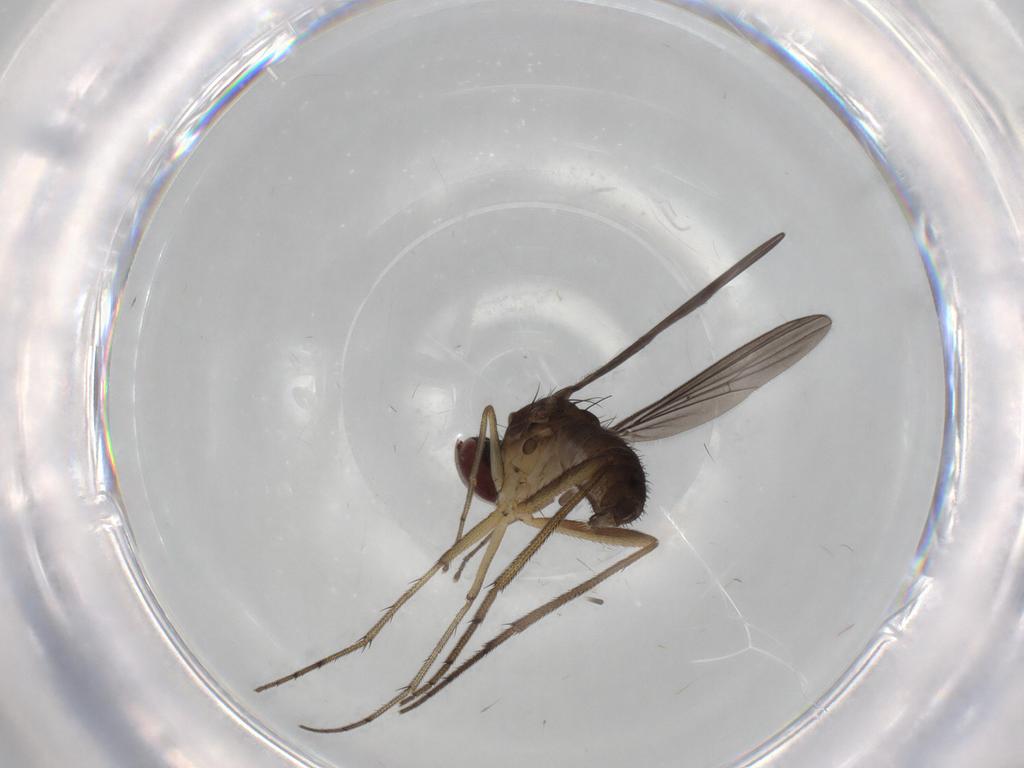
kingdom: Animalia
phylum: Arthropoda
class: Insecta
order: Diptera
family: Dolichopodidae
